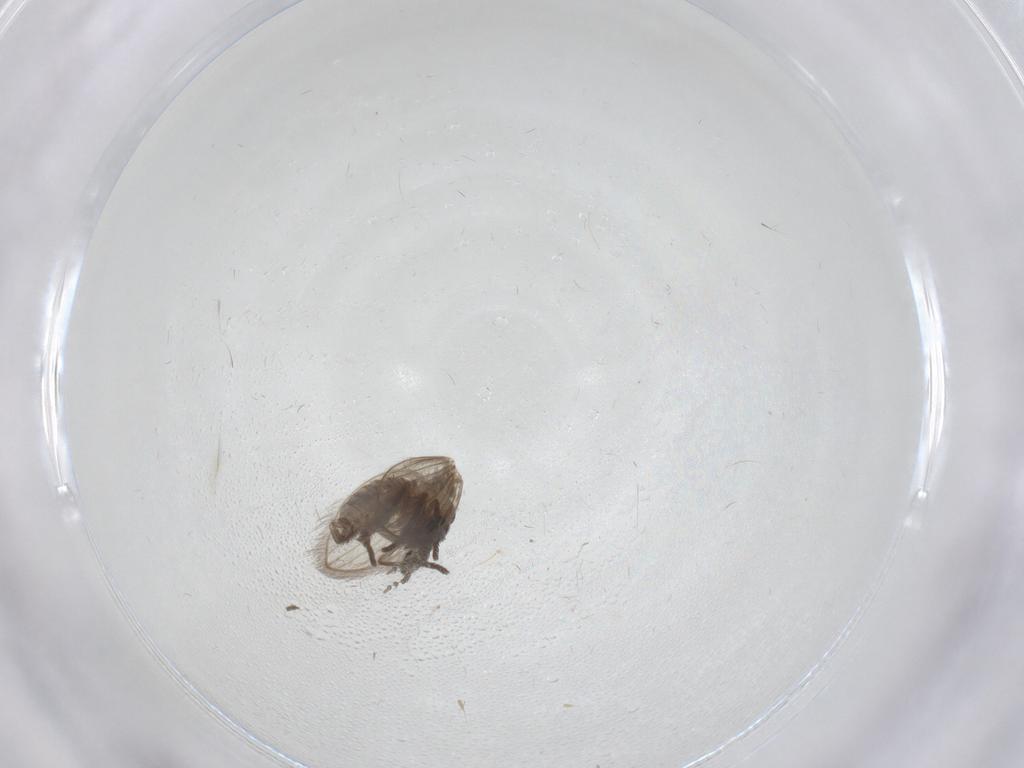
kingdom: Animalia
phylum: Arthropoda
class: Insecta
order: Diptera
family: Psychodidae
